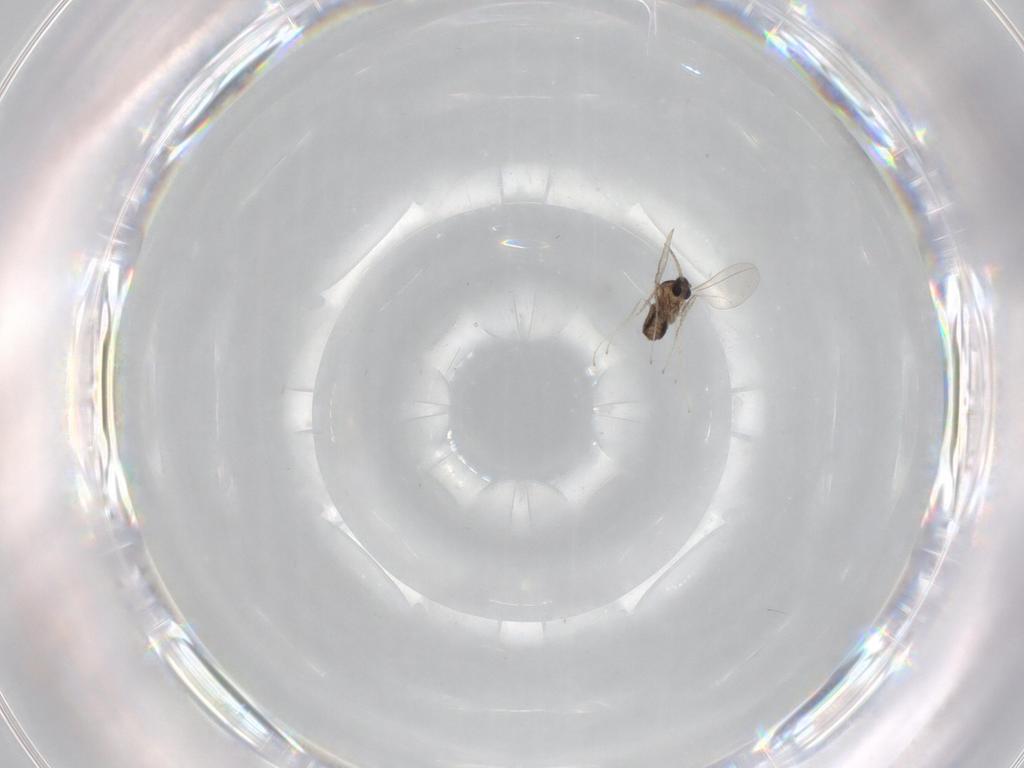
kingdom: Animalia
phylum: Arthropoda
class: Insecta
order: Diptera
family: Cecidomyiidae
